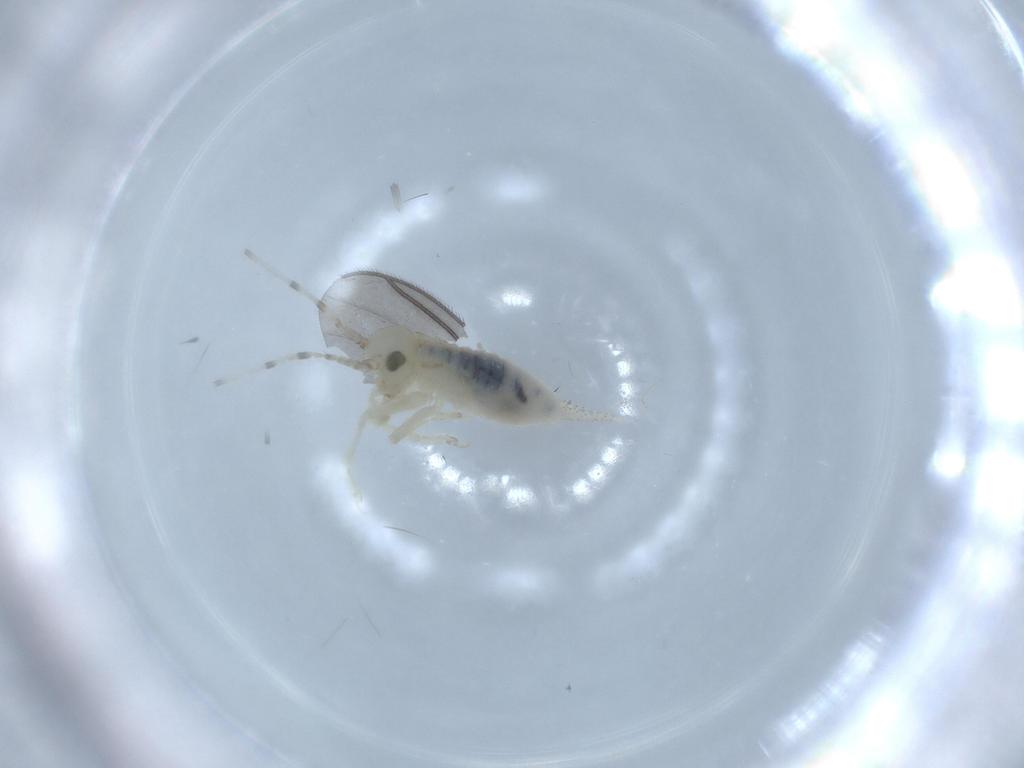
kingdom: Animalia
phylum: Arthropoda
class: Insecta
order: Orthoptera
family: Trigonidiidae
